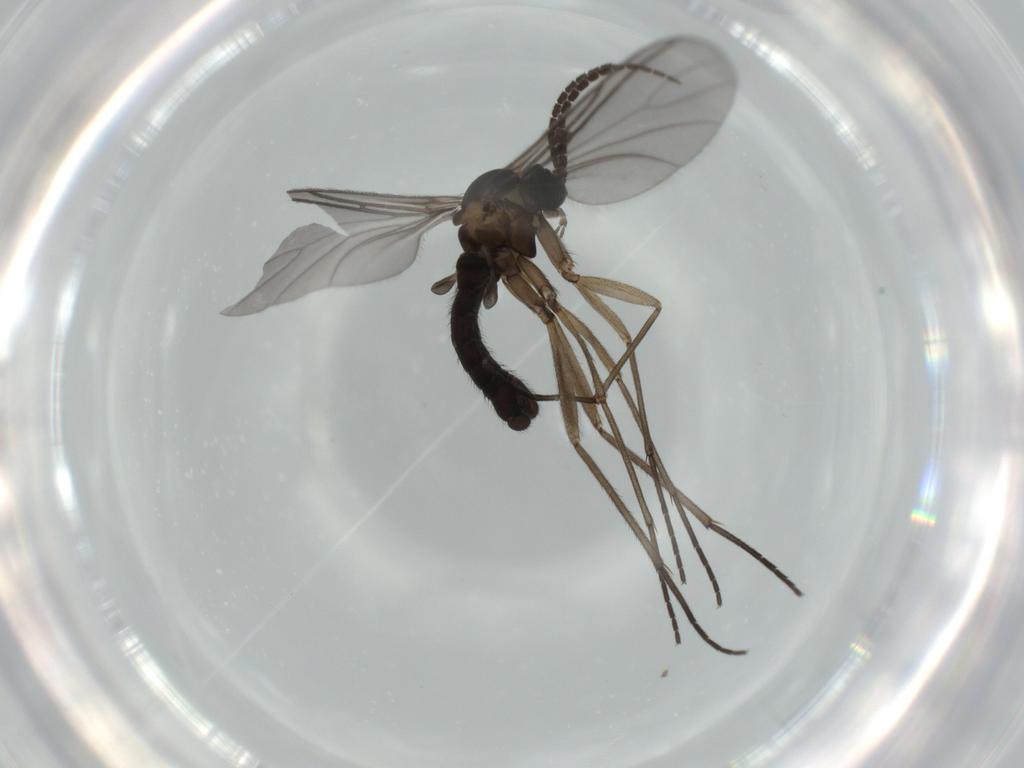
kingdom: Animalia
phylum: Arthropoda
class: Insecta
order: Diptera
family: Sciaridae
